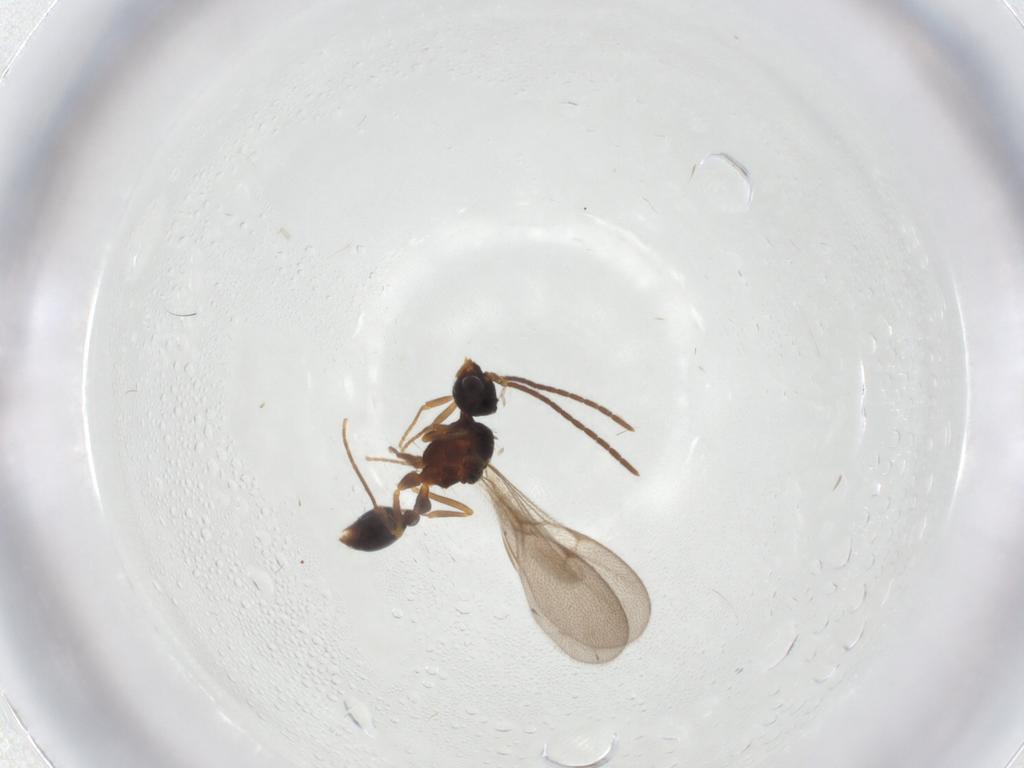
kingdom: Animalia
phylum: Arthropoda
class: Insecta
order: Hymenoptera
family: Formicidae
